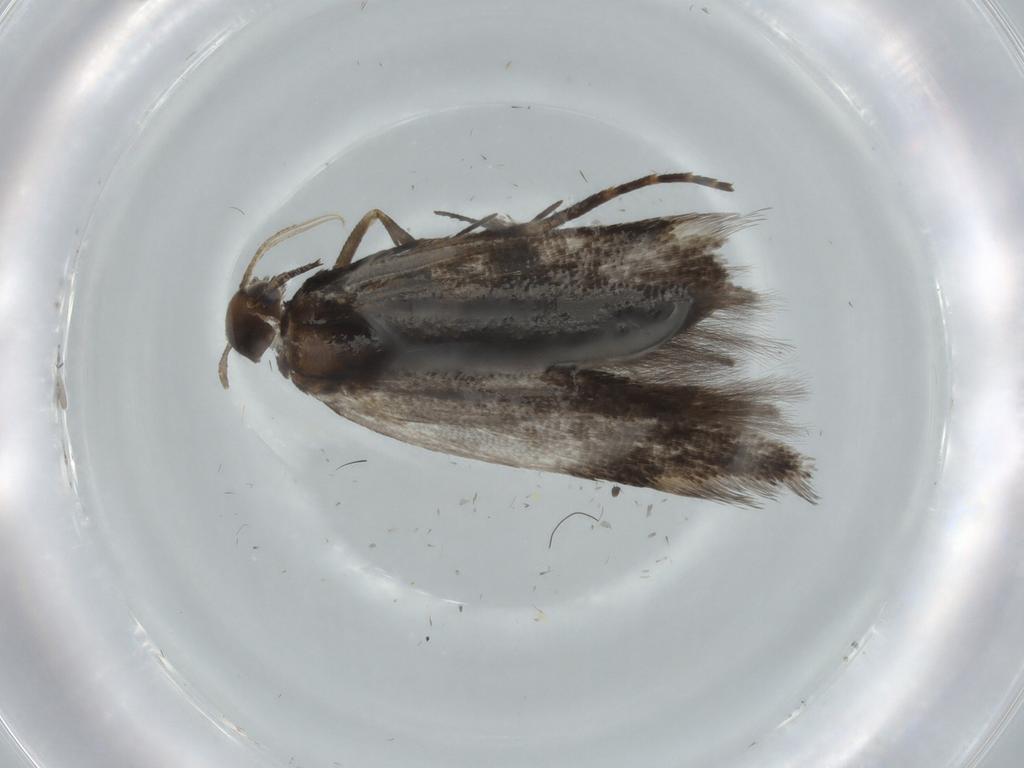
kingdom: Animalia
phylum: Arthropoda
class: Insecta
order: Lepidoptera
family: Gelechiidae
